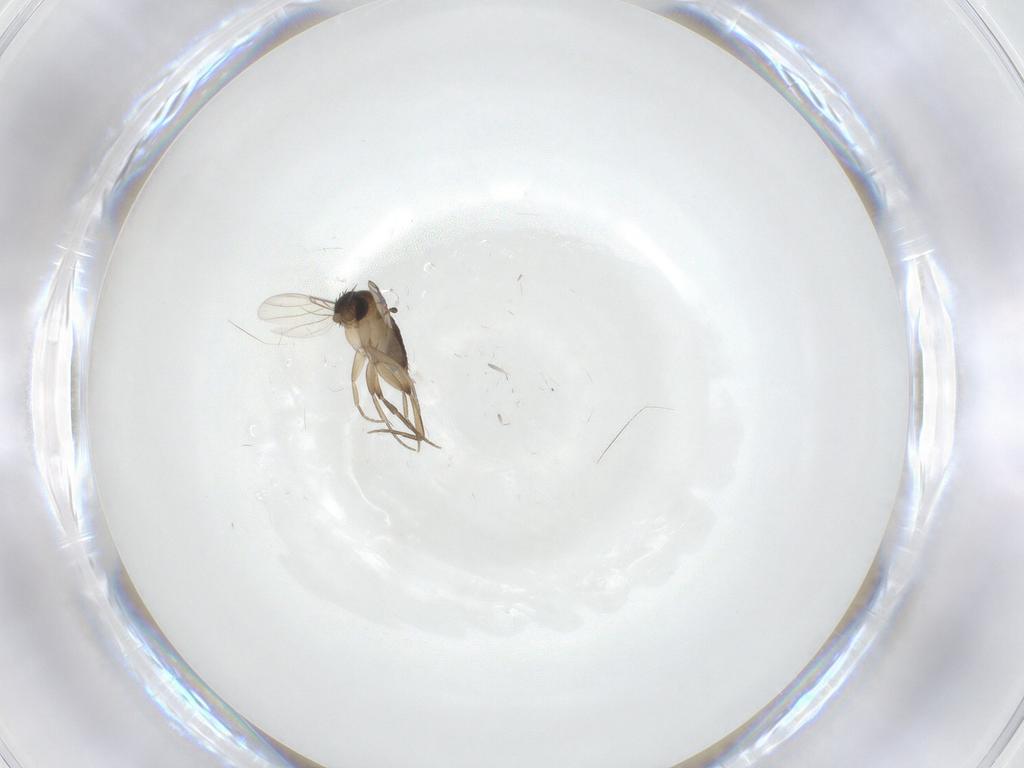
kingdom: Animalia
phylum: Arthropoda
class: Insecta
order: Diptera
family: Phoridae
